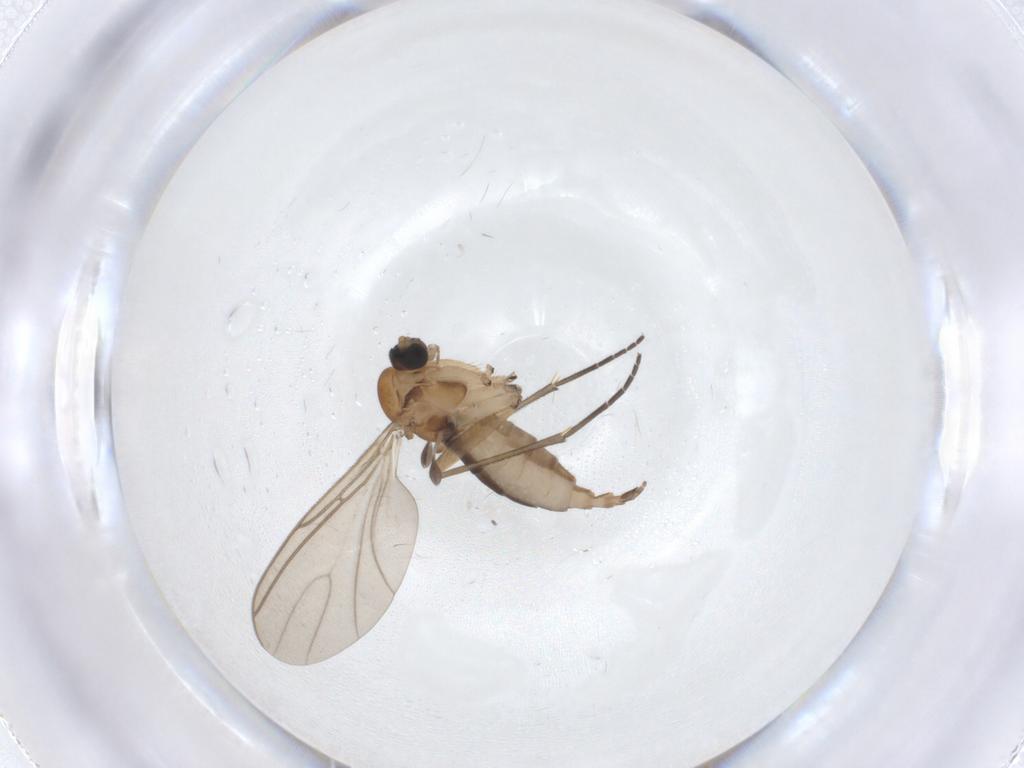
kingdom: Animalia
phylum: Arthropoda
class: Insecta
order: Diptera
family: Sciaridae
